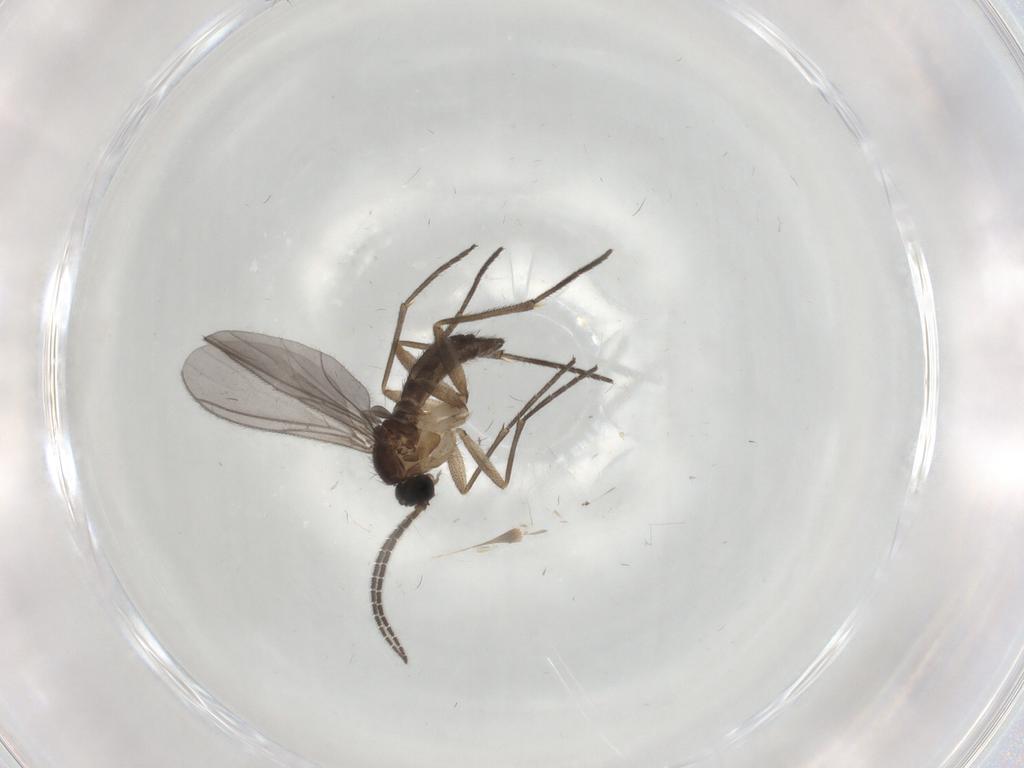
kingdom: Animalia
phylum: Arthropoda
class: Insecta
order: Diptera
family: Sciaridae
